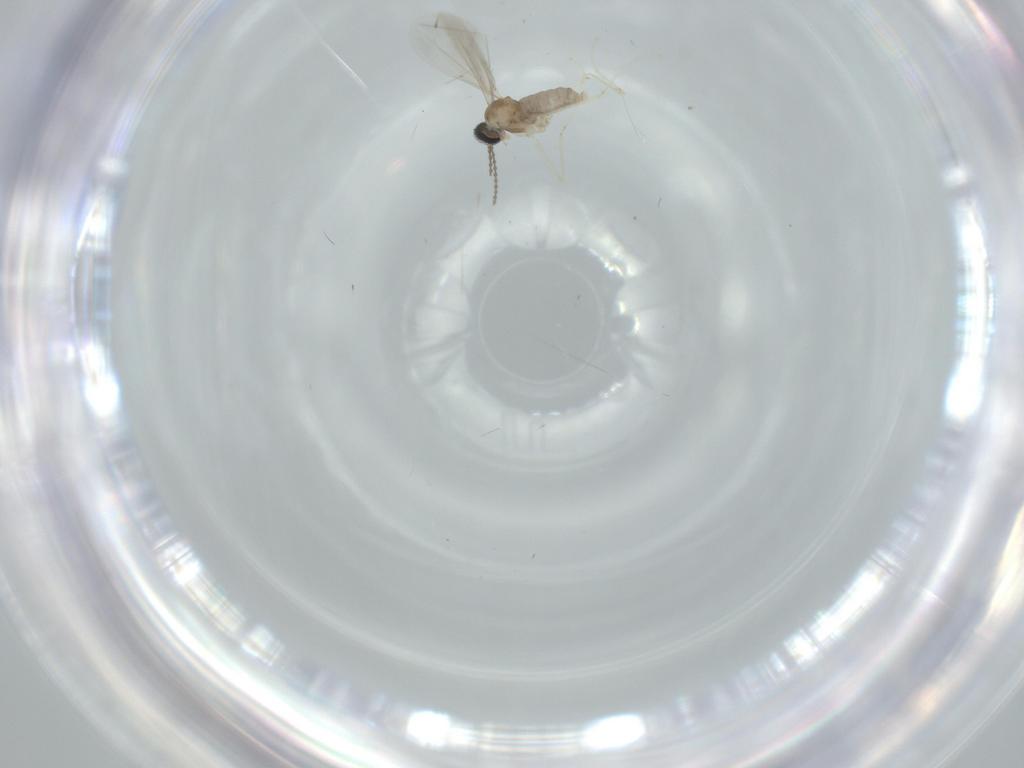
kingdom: Animalia
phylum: Arthropoda
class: Insecta
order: Diptera
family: Cecidomyiidae
